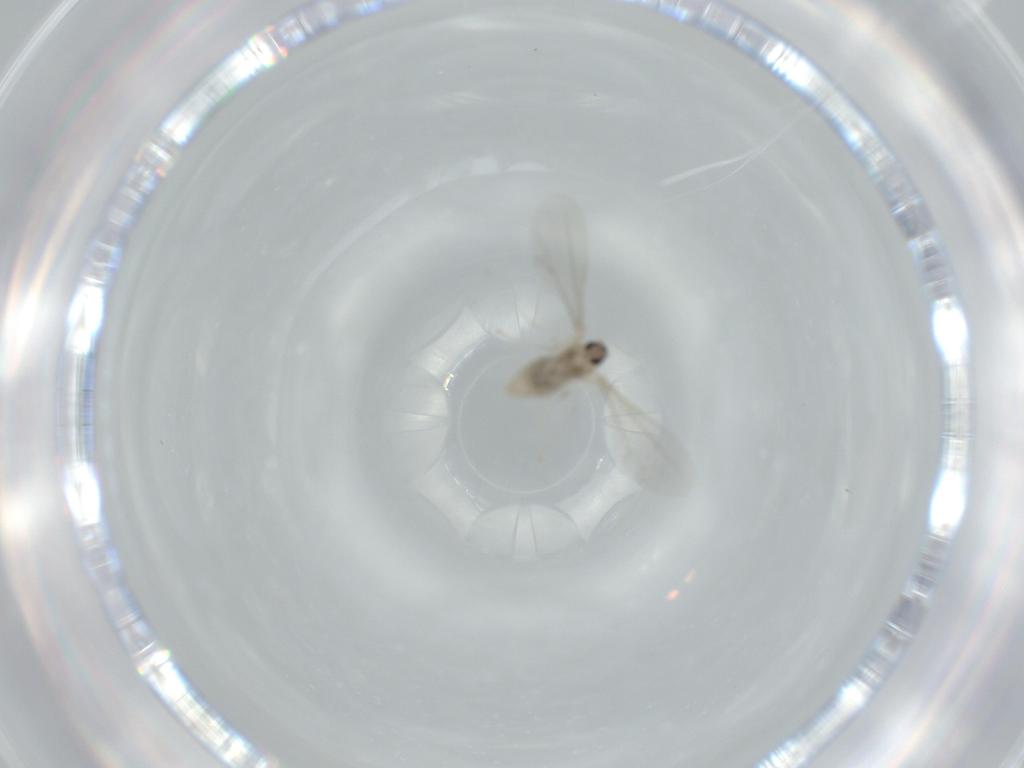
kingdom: Animalia
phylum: Arthropoda
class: Insecta
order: Diptera
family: Cecidomyiidae
